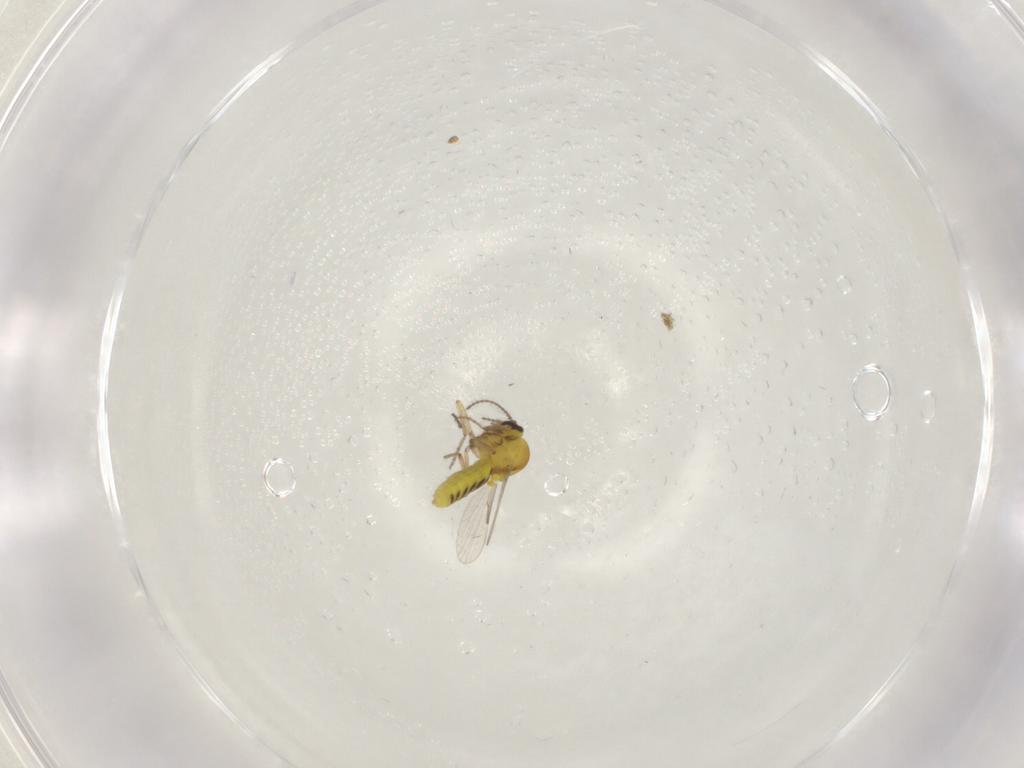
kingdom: Animalia
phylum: Arthropoda
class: Insecta
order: Diptera
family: Ceratopogonidae
